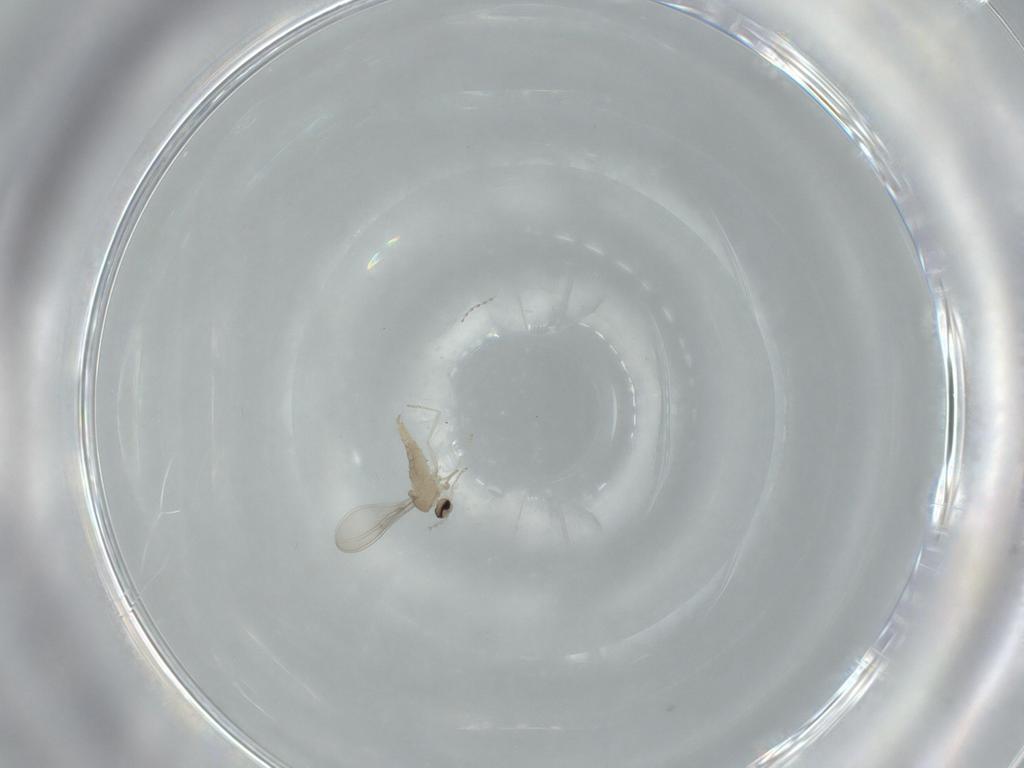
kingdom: Animalia
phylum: Arthropoda
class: Insecta
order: Diptera
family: Cecidomyiidae
